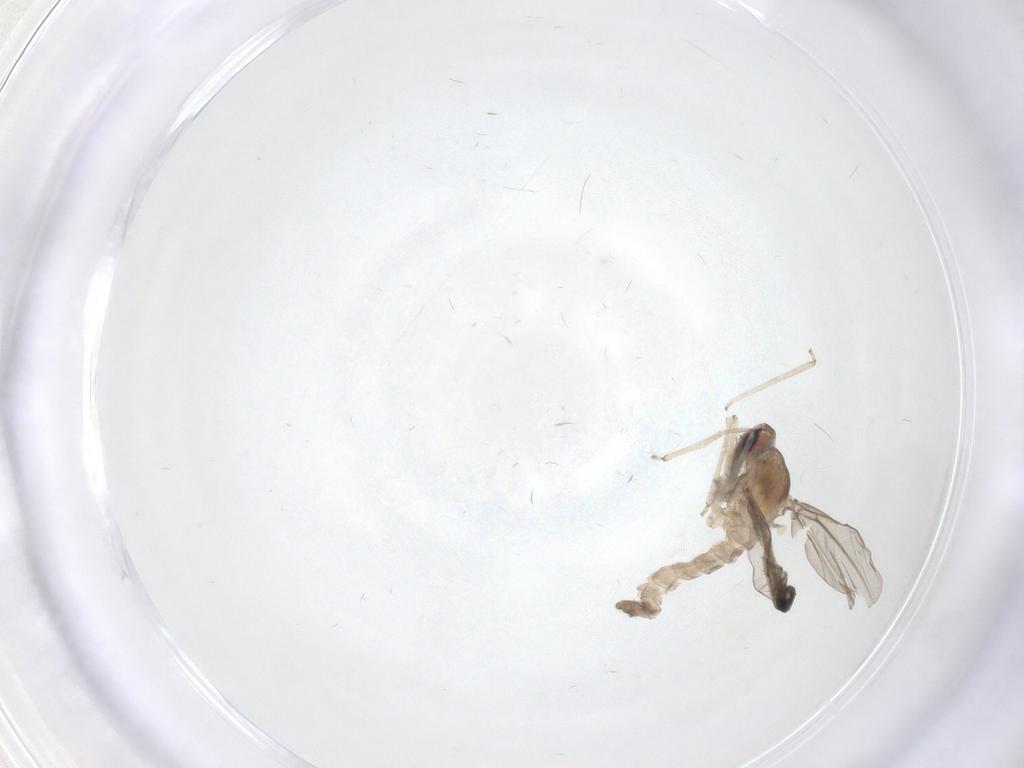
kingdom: Animalia
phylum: Arthropoda
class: Insecta
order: Diptera
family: Cecidomyiidae
